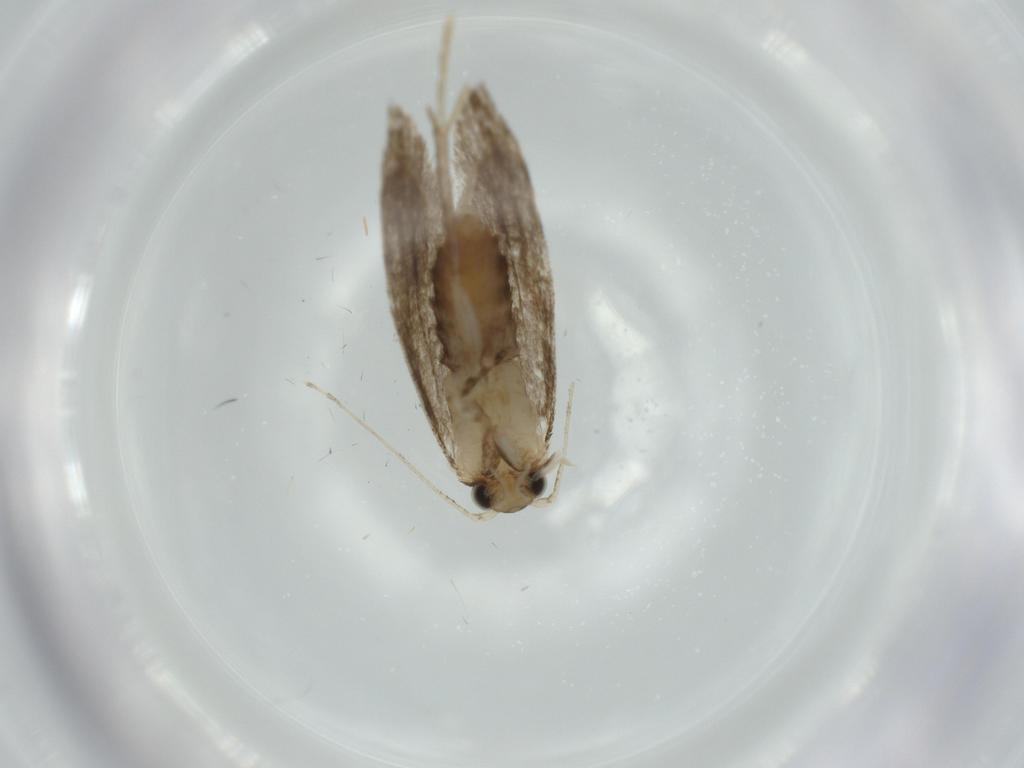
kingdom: Animalia
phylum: Arthropoda
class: Insecta
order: Lepidoptera
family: Tineidae
